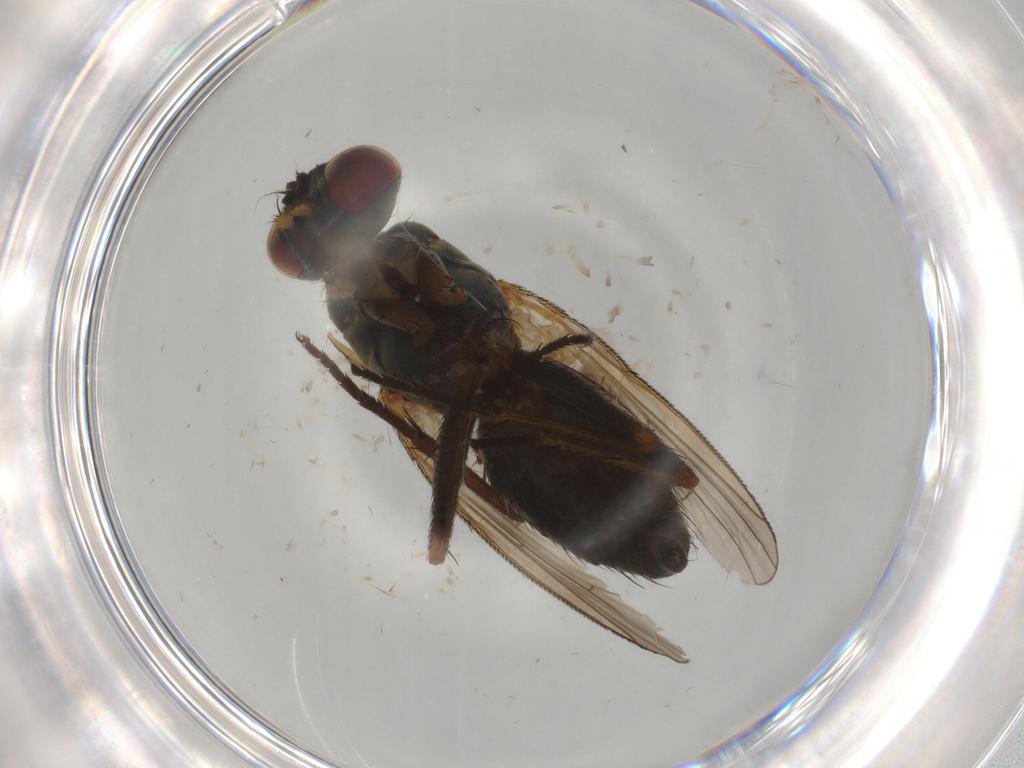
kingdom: Animalia
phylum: Arthropoda
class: Insecta
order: Diptera
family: Muscidae
